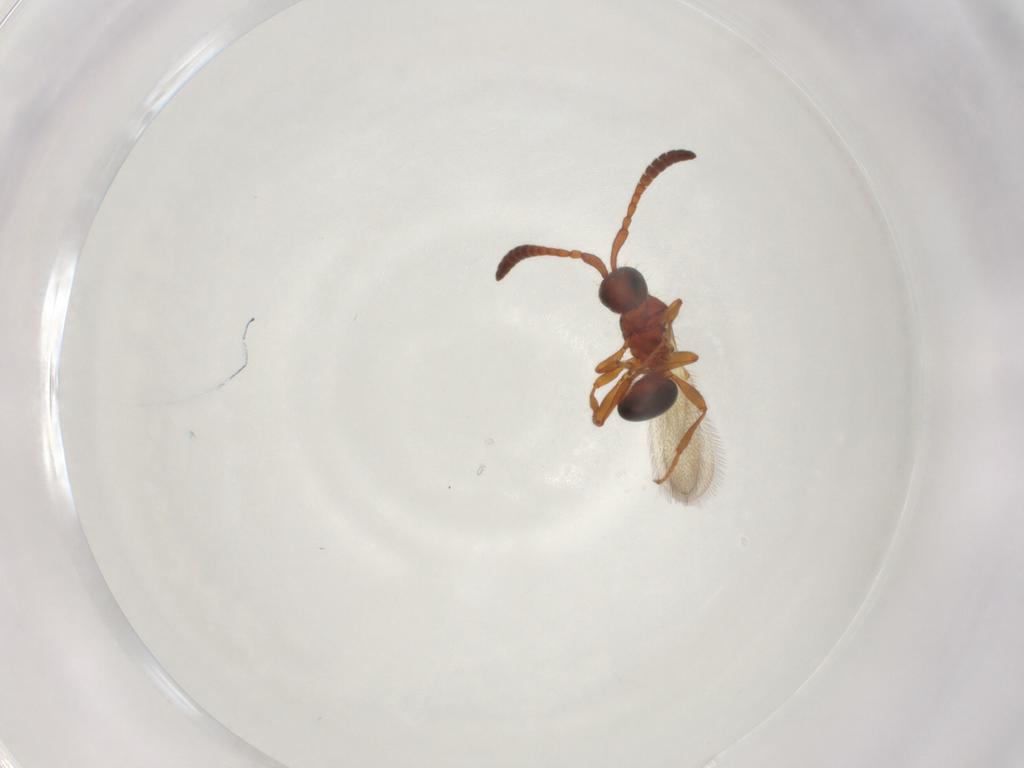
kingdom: Animalia
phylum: Arthropoda
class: Insecta
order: Hymenoptera
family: Diapriidae
